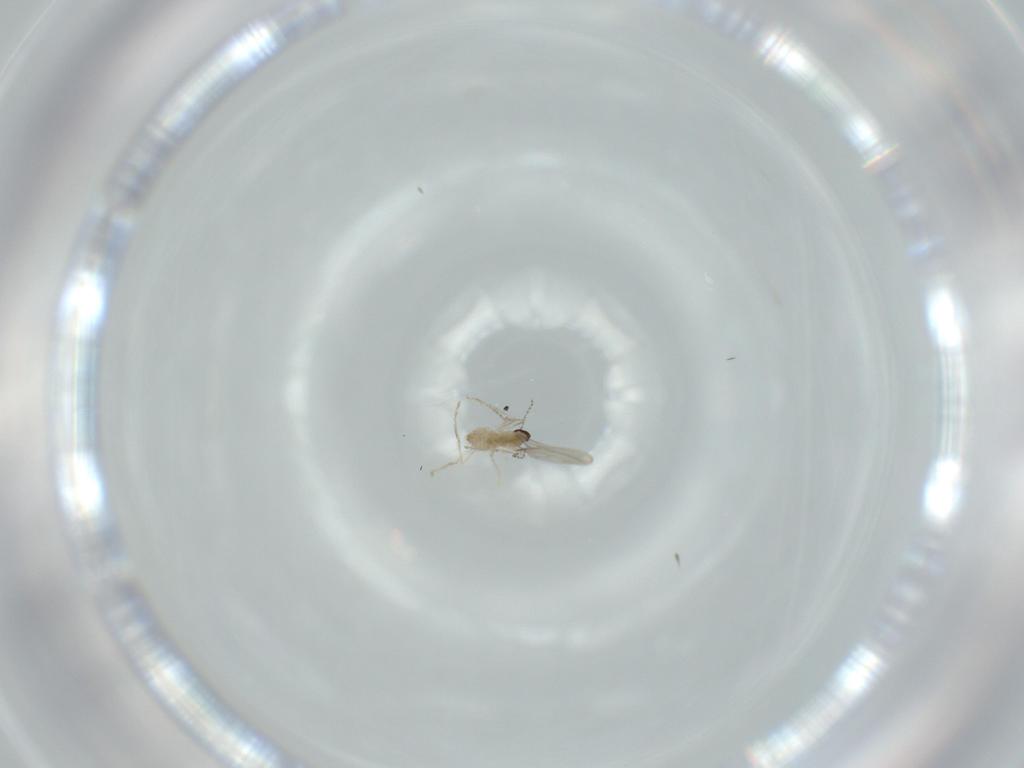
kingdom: Animalia
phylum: Arthropoda
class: Insecta
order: Diptera
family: Cecidomyiidae
